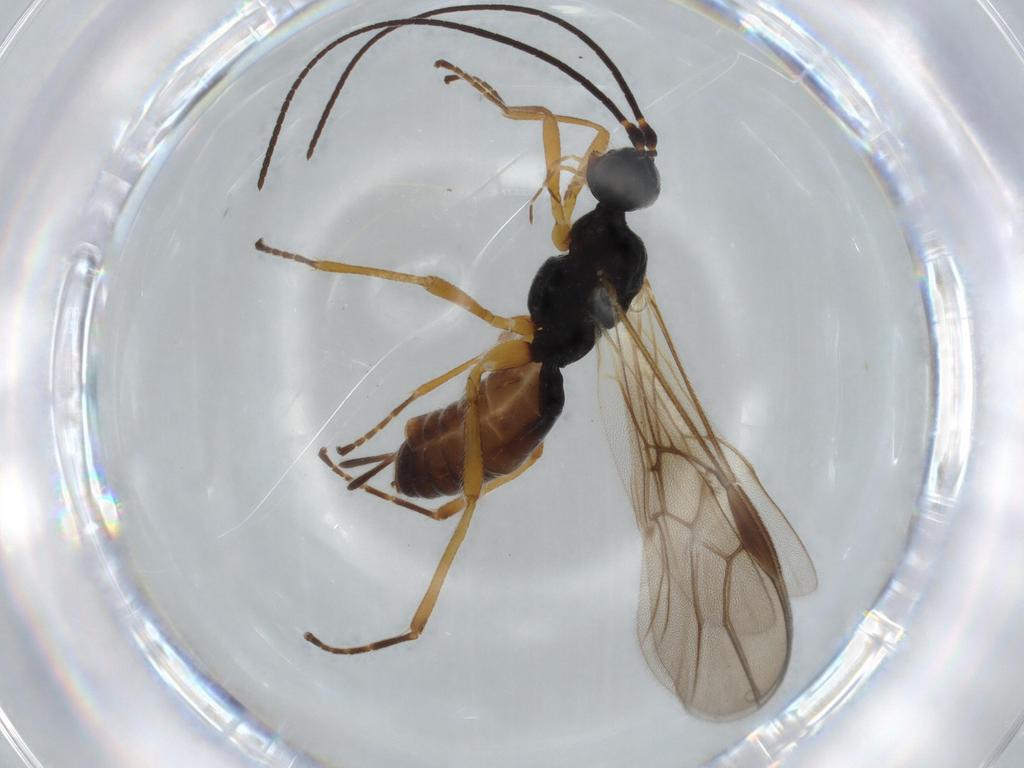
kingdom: Animalia
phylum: Arthropoda
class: Insecta
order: Hymenoptera
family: Braconidae
